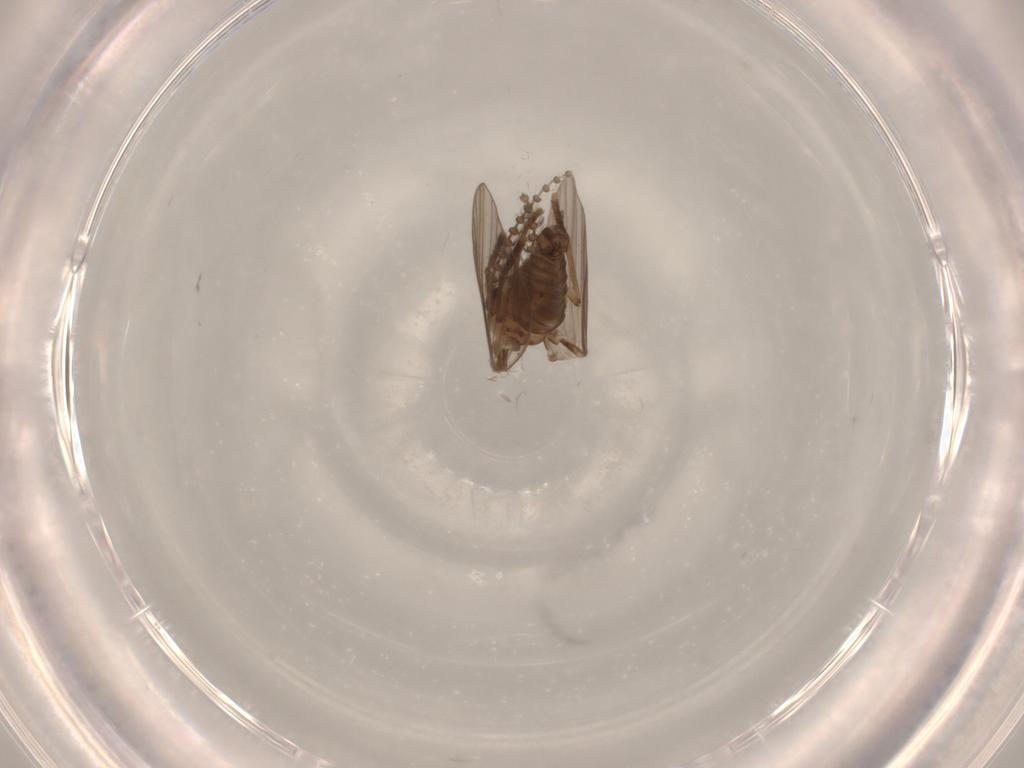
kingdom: Animalia
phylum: Arthropoda
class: Insecta
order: Diptera
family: Psychodidae
